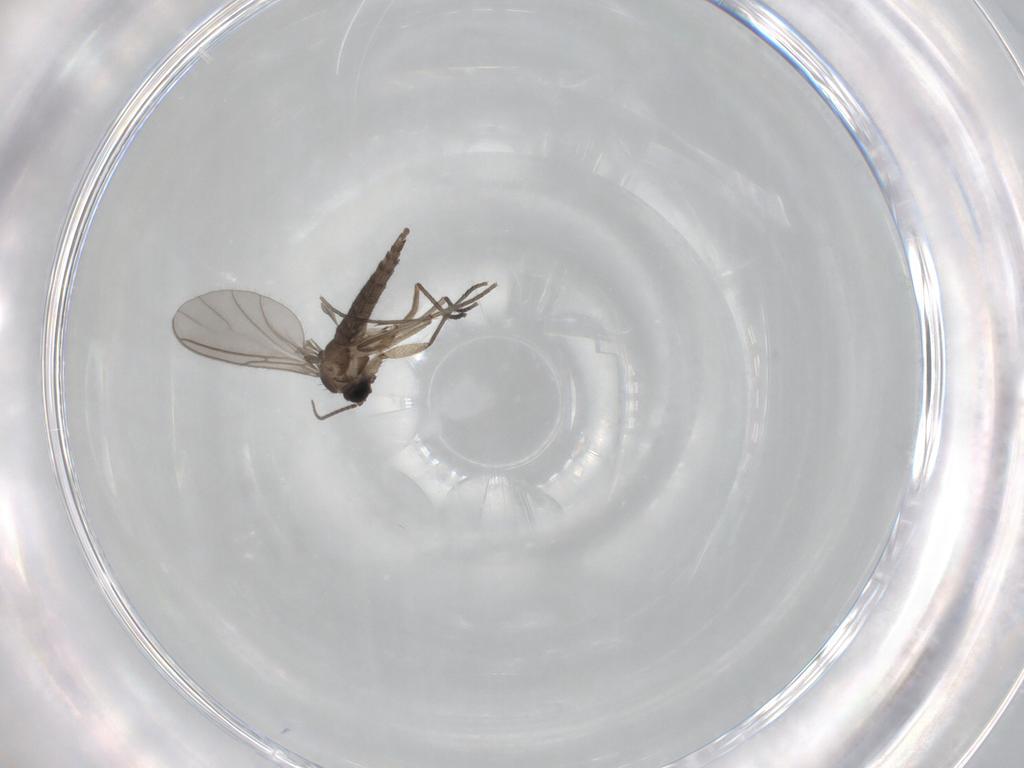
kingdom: Animalia
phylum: Arthropoda
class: Insecta
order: Diptera
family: Sciaridae
